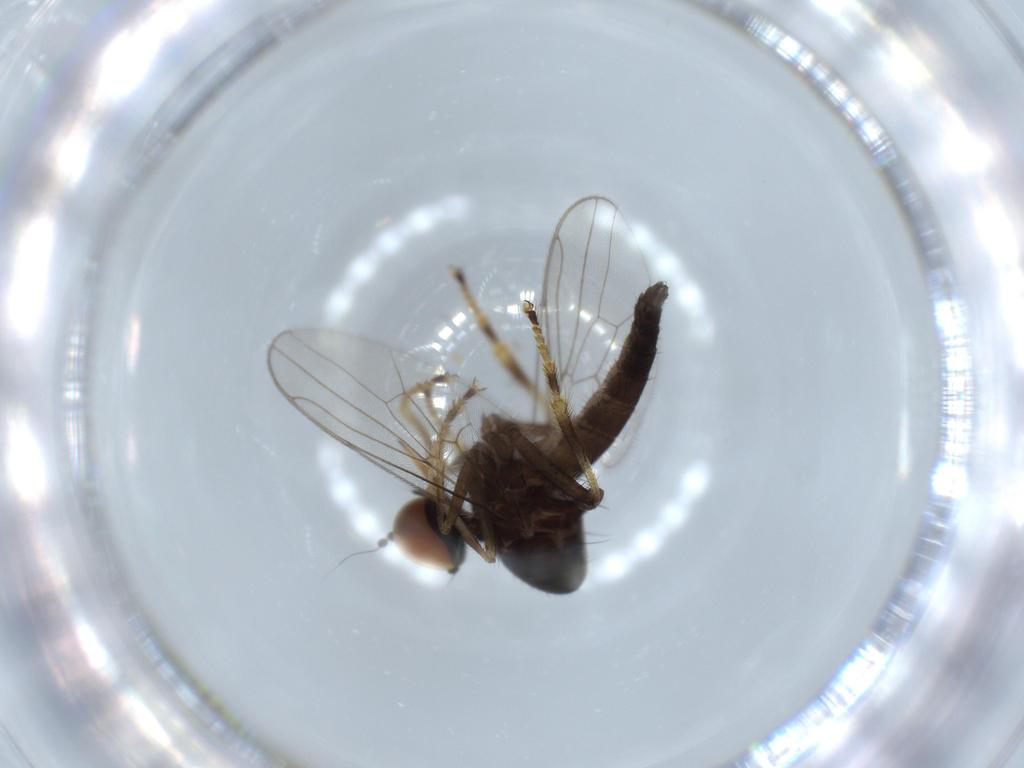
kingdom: Animalia
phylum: Arthropoda
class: Insecta
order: Diptera
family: Hybotidae
